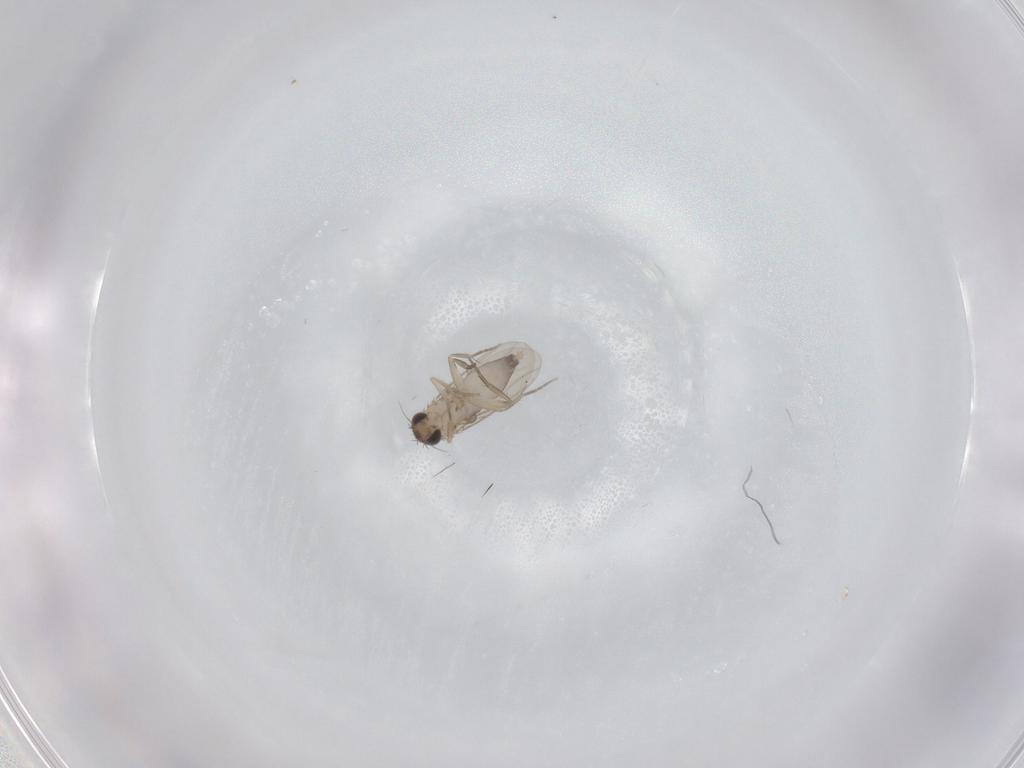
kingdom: Animalia
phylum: Arthropoda
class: Insecta
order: Diptera
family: Phoridae
